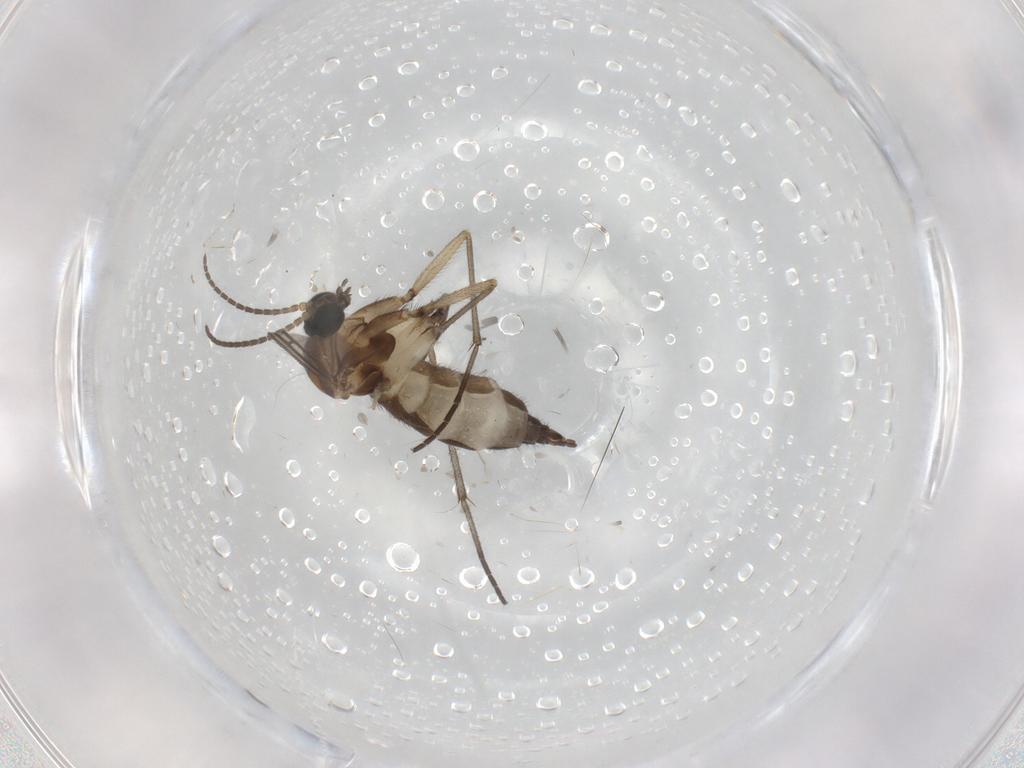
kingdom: Animalia
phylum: Arthropoda
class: Insecta
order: Diptera
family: Sciaridae
